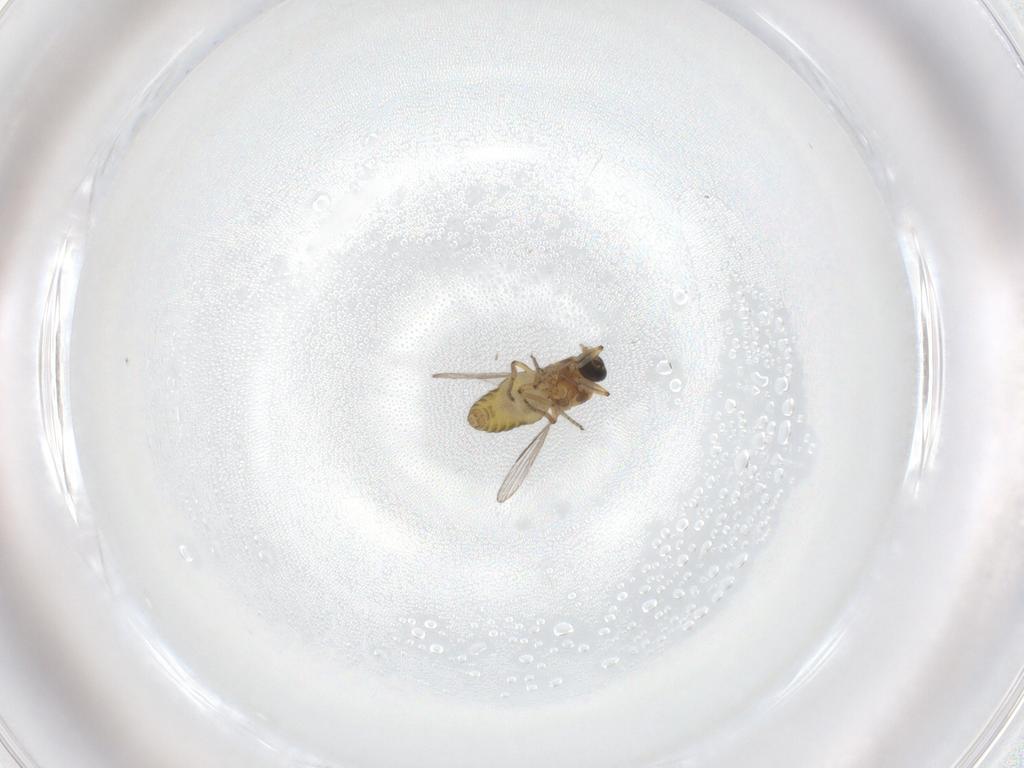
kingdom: Animalia
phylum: Arthropoda
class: Insecta
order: Diptera
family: Ceratopogonidae
